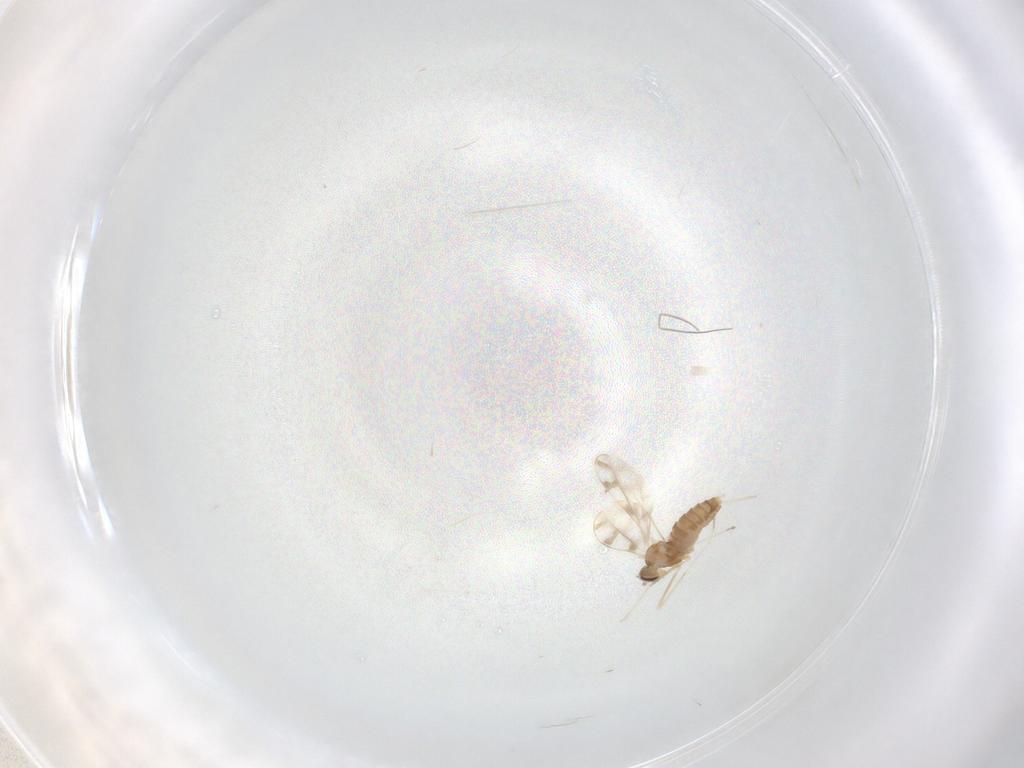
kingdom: Animalia
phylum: Arthropoda
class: Insecta
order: Diptera
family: Cecidomyiidae
